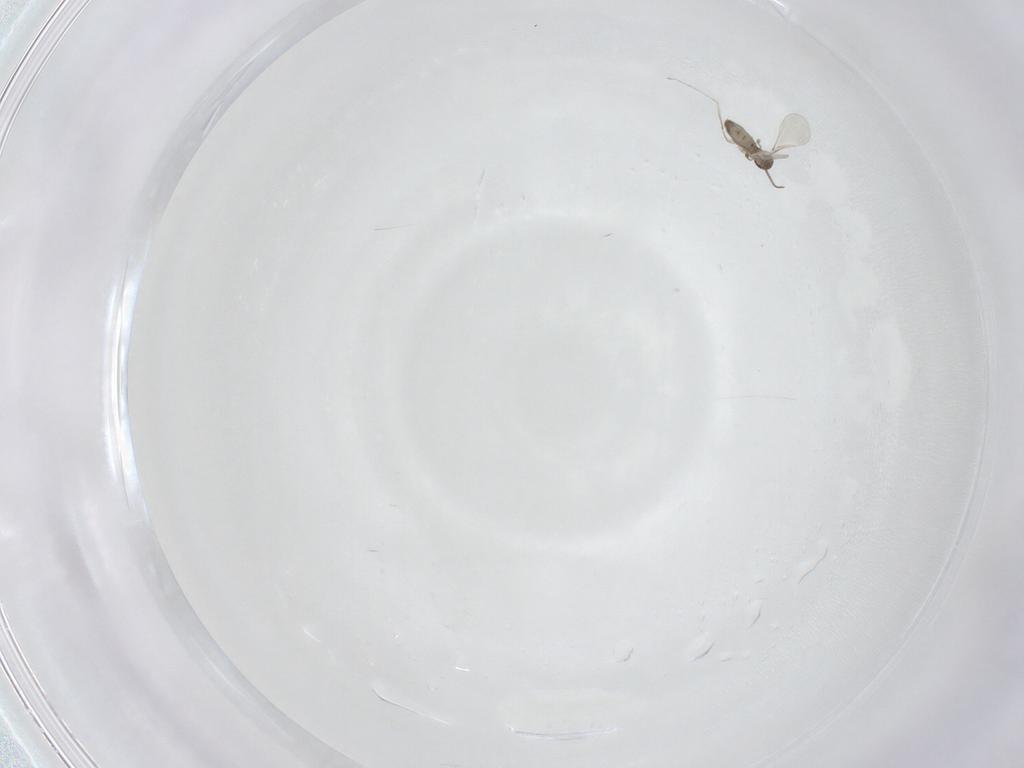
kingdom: Animalia
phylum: Arthropoda
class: Insecta
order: Diptera
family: Cecidomyiidae
